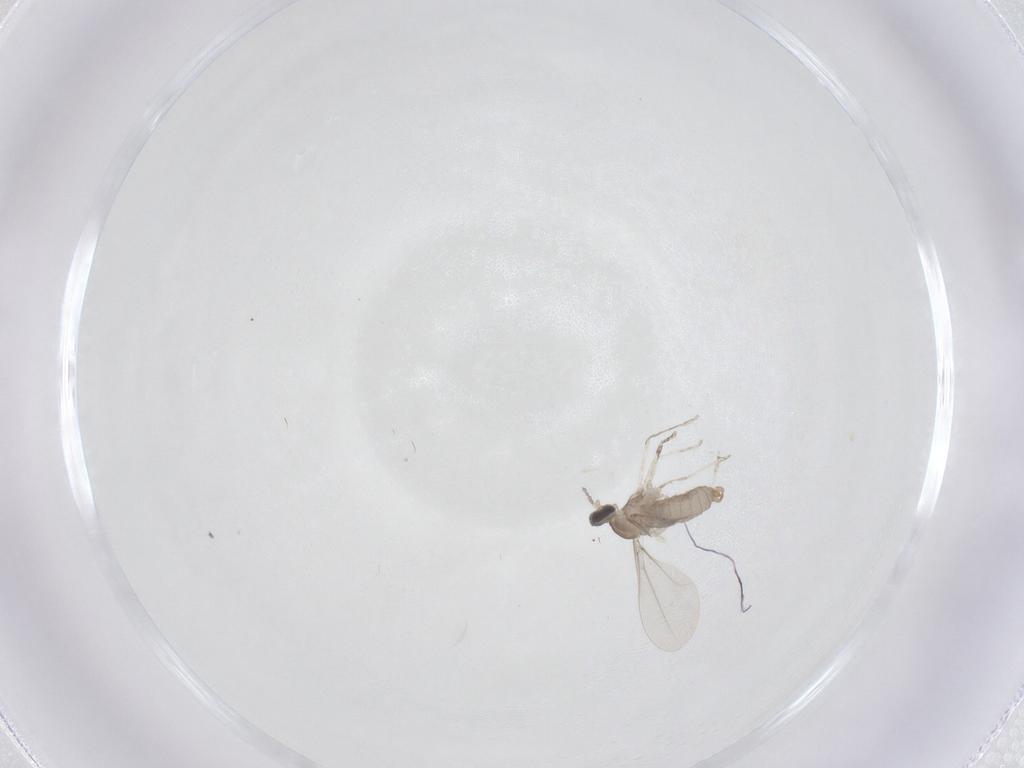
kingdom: Animalia
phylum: Arthropoda
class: Insecta
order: Diptera
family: Cecidomyiidae
